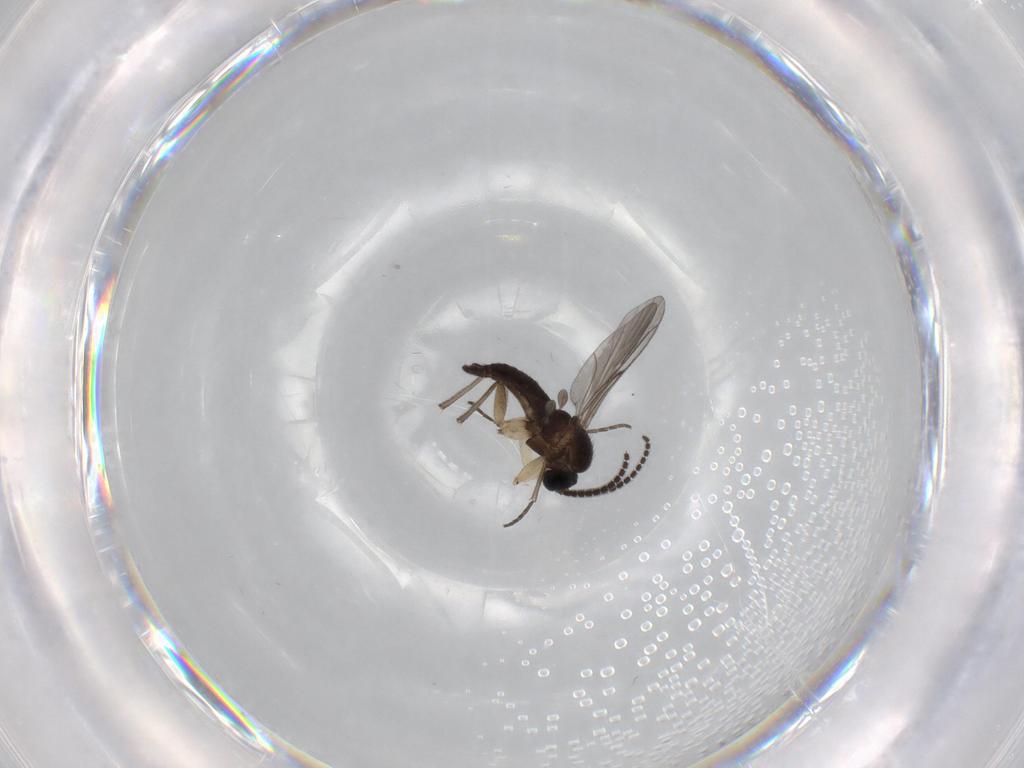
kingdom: Animalia
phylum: Arthropoda
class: Insecta
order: Diptera
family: Sciaridae
